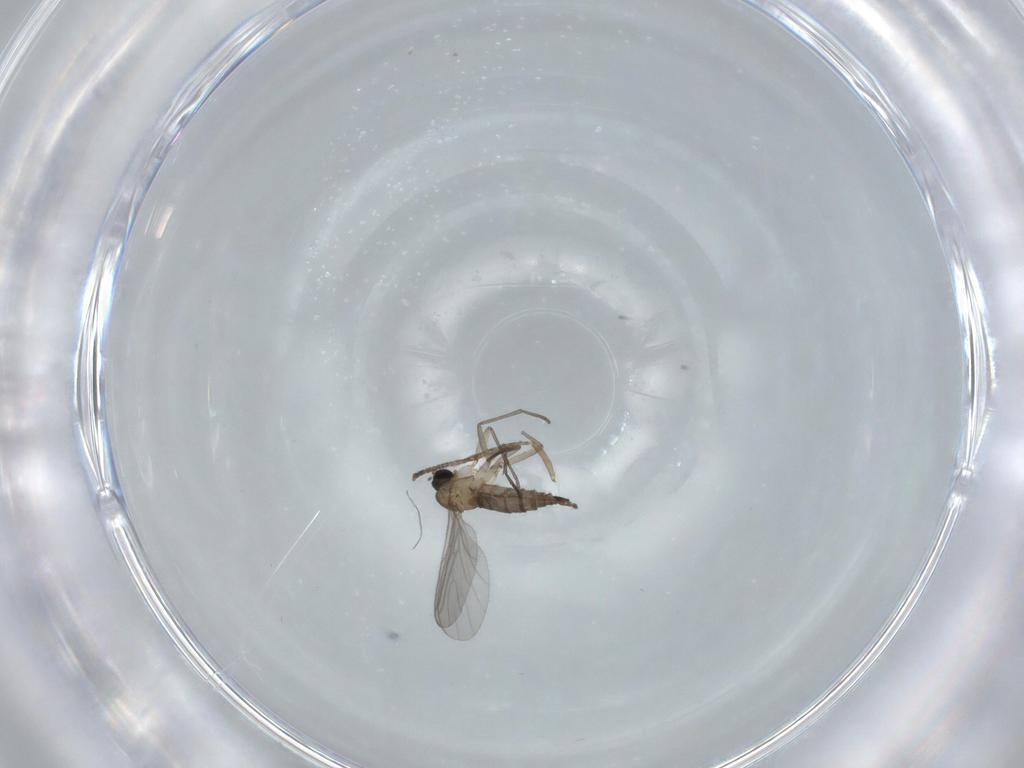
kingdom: Animalia
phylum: Arthropoda
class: Insecta
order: Diptera
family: Sciaridae
